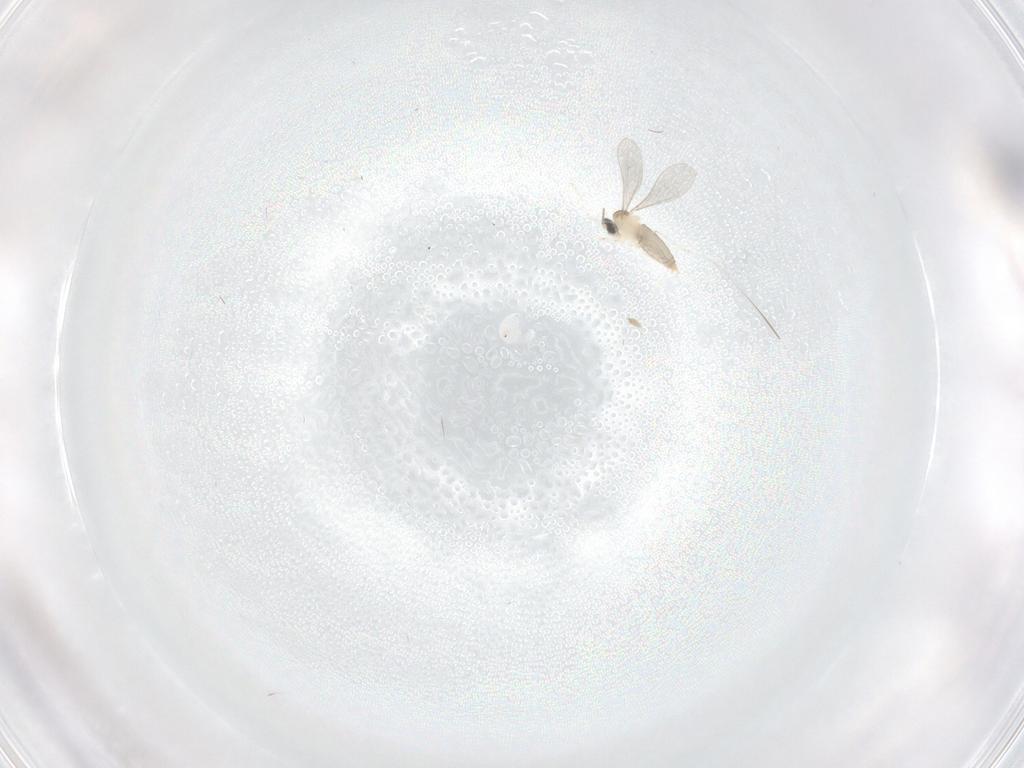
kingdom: Animalia
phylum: Arthropoda
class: Insecta
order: Diptera
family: Cecidomyiidae
